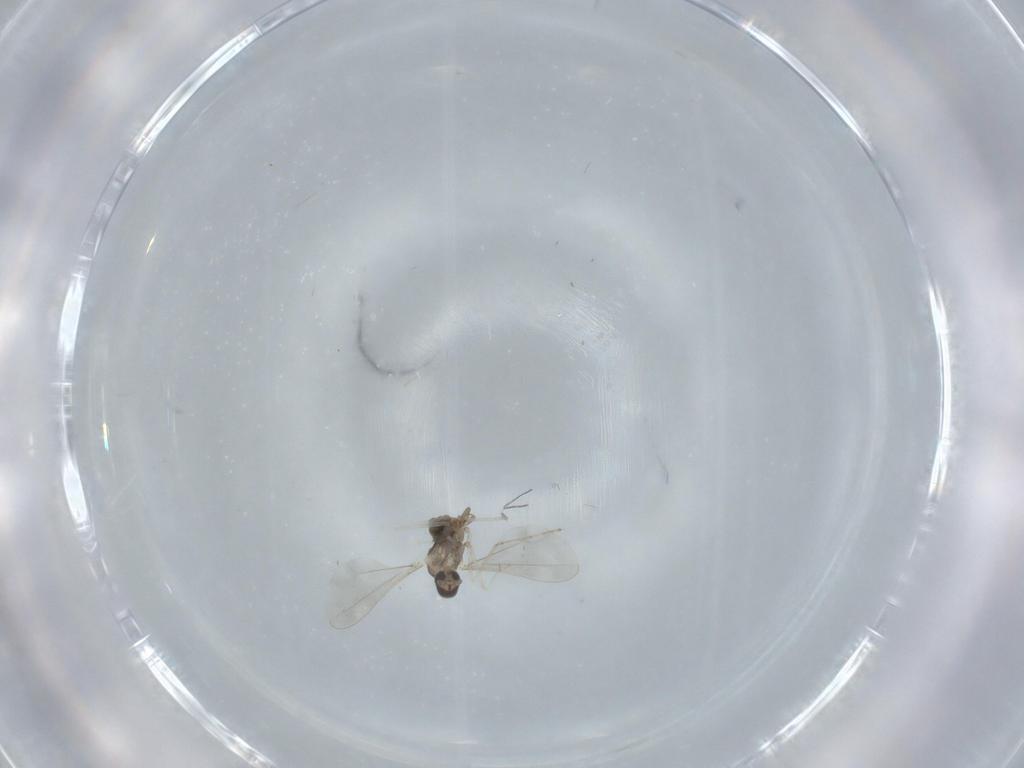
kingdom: Animalia
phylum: Arthropoda
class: Insecta
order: Diptera
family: Cecidomyiidae
